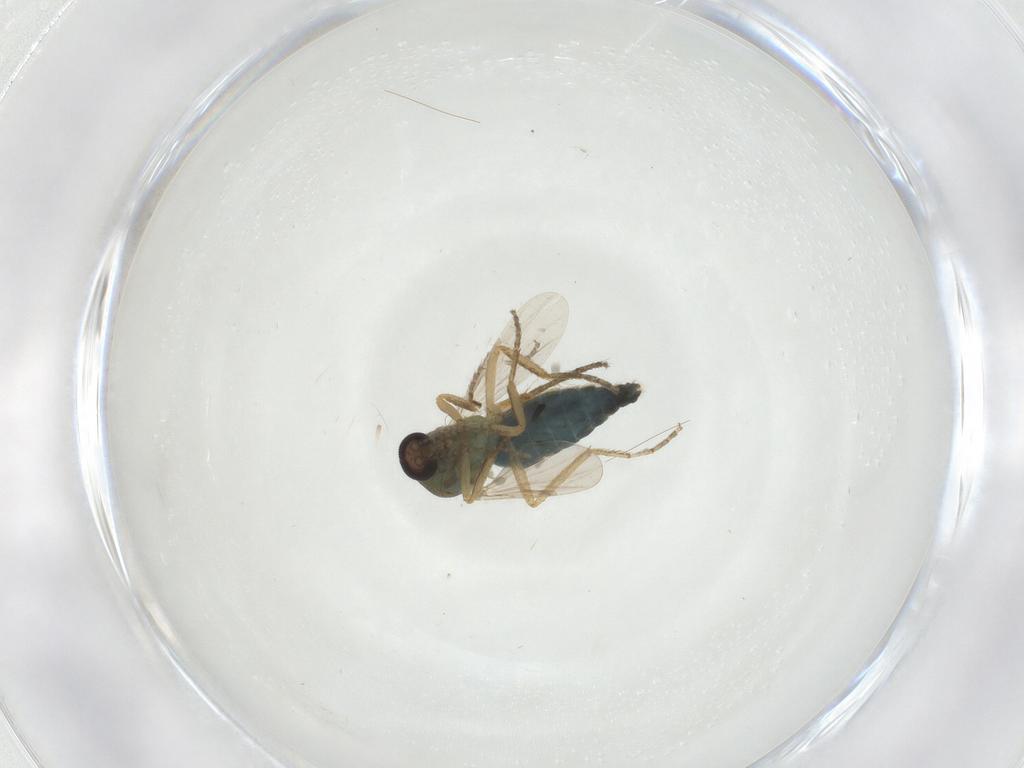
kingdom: Animalia
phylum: Arthropoda
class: Insecta
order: Diptera
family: Ceratopogonidae
